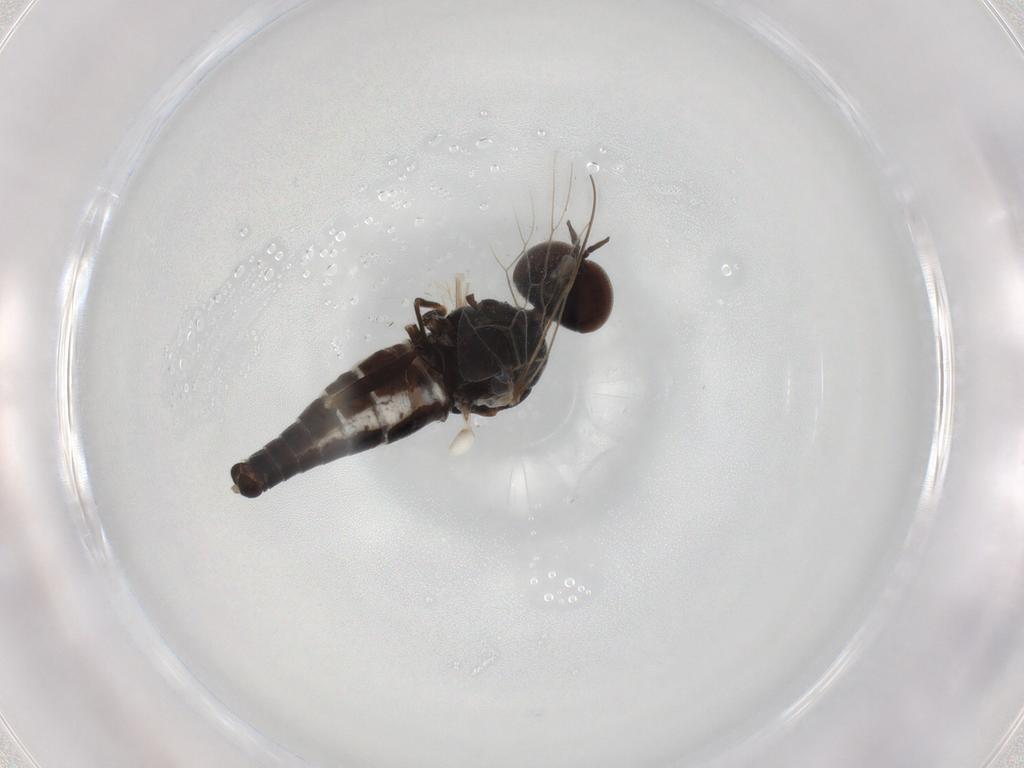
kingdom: Animalia
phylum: Arthropoda
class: Insecta
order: Diptera
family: Scenopinidae
